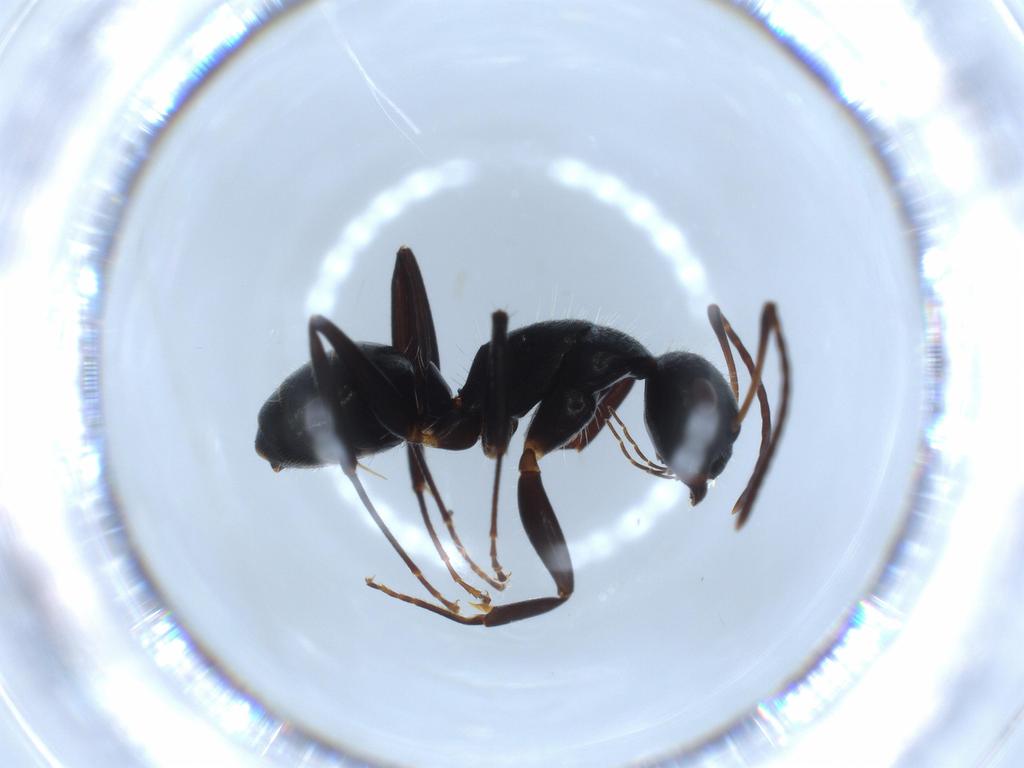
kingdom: Animalia
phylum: Arthropoda
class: Insecta
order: Hymenoptera
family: Formicidae
